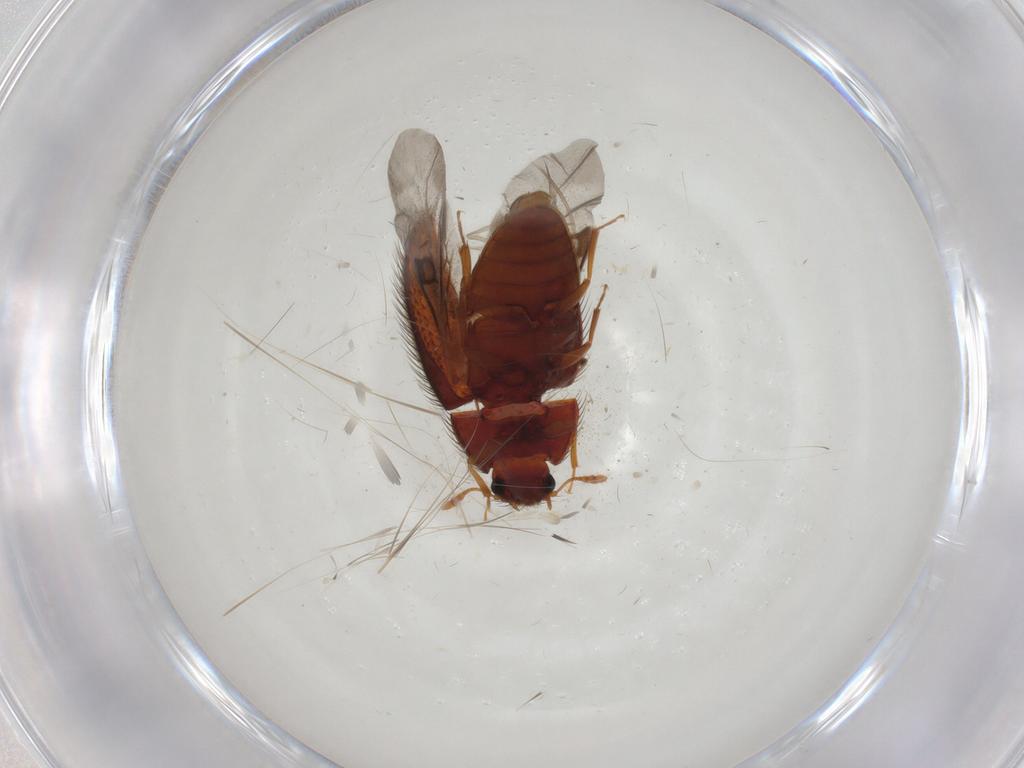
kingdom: Animalia
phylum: Arthropoda
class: Insecta
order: Coleoptera
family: Biphyllidae
